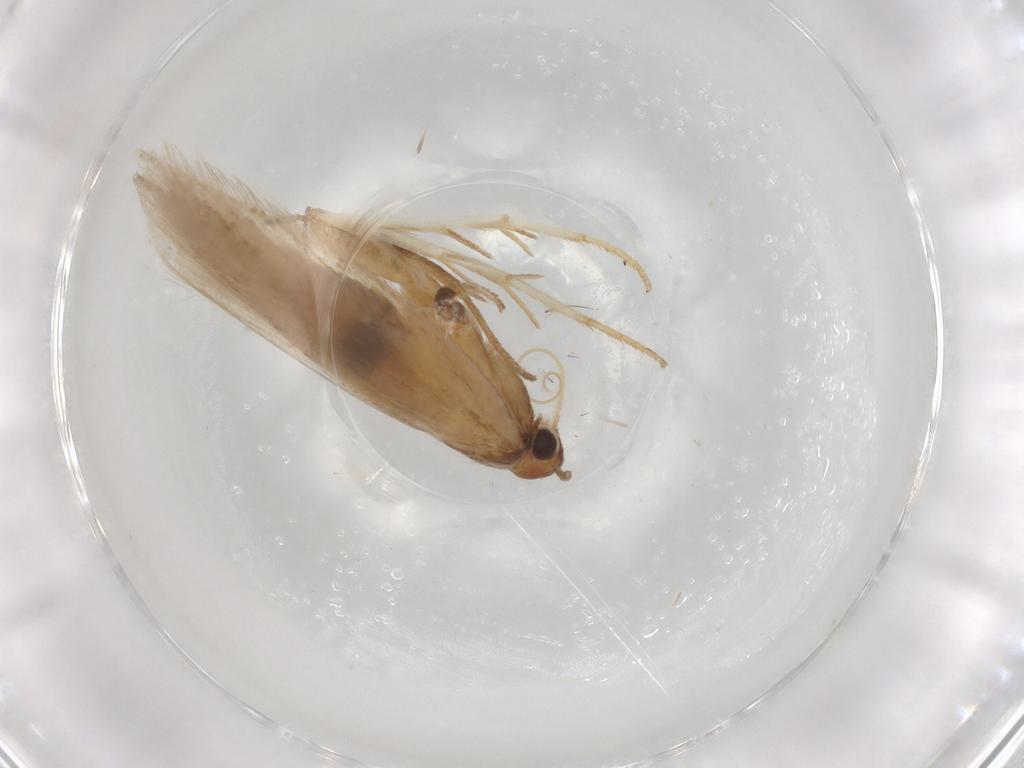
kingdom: Animalia
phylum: Arthropoda
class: Insecta
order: Lepidoptera
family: Gelechiidae
